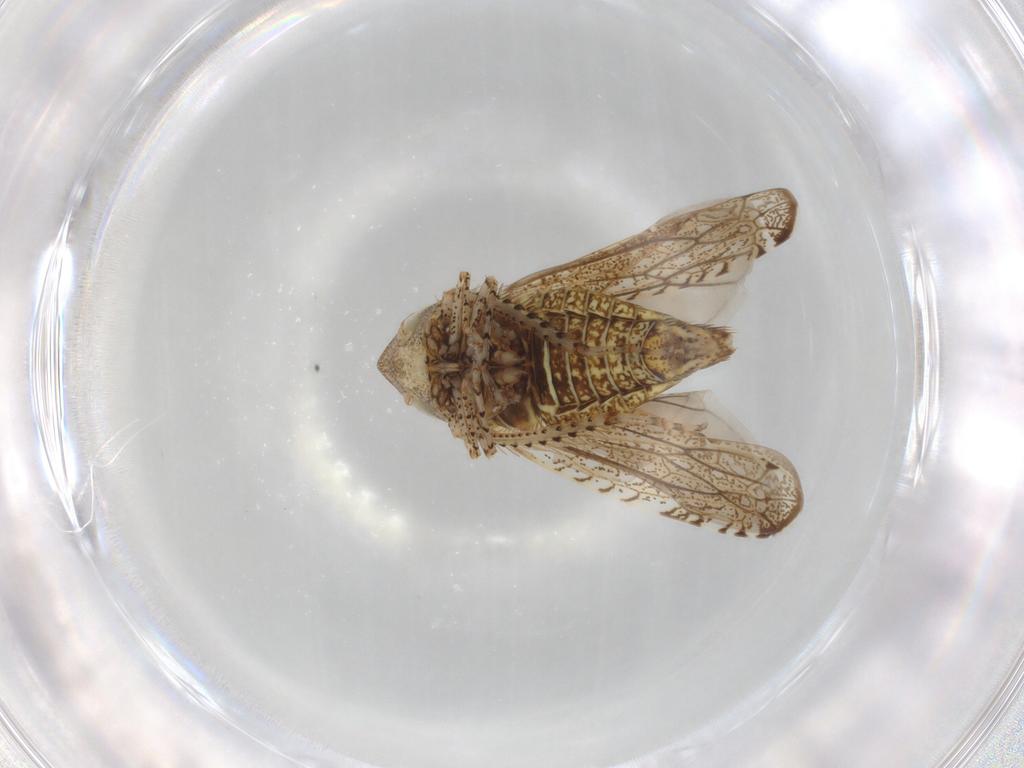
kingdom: Animalia
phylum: Arthropoda
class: Insecta
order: Hemiptera
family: Cicadellidae
